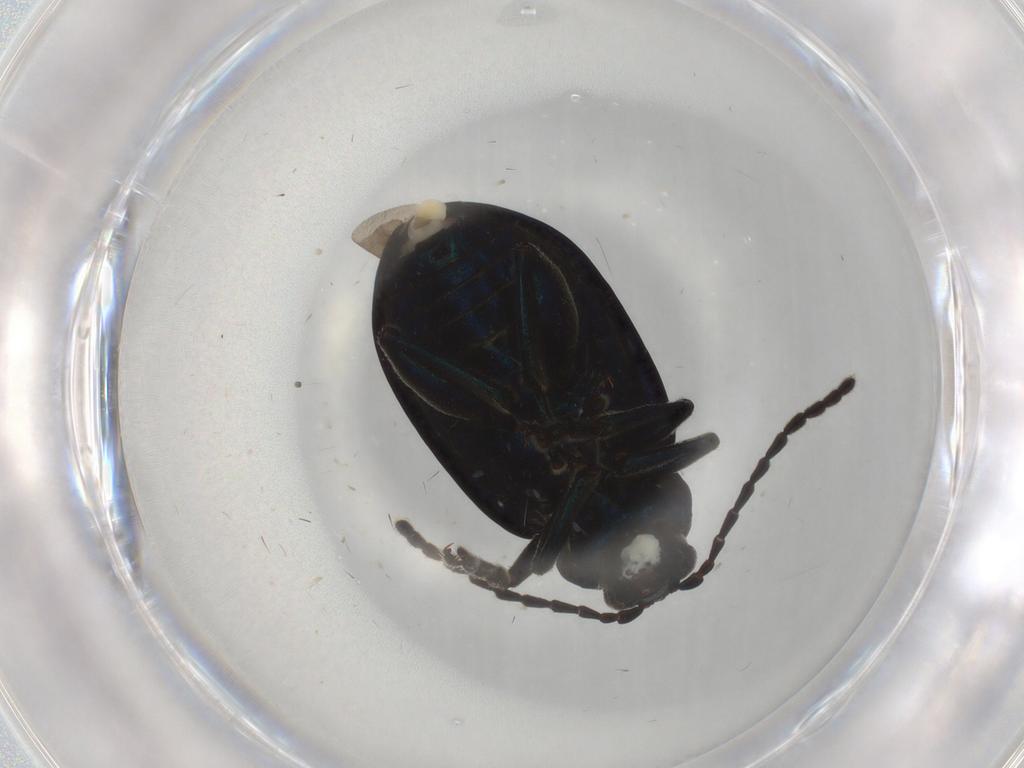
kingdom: Animalia
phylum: Arthropoda
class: Insecta
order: Coleoptera
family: Chrysomelidae
